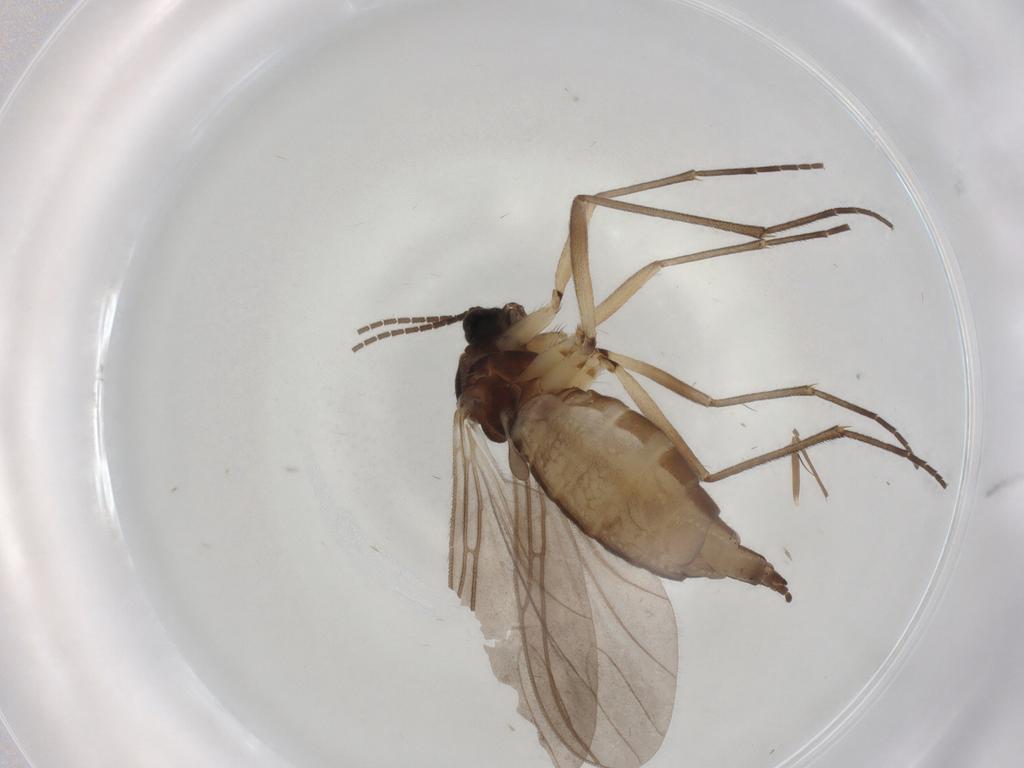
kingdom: Animalia
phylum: Arthropoda
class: Insecta
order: Diptera
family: Sciaridae
